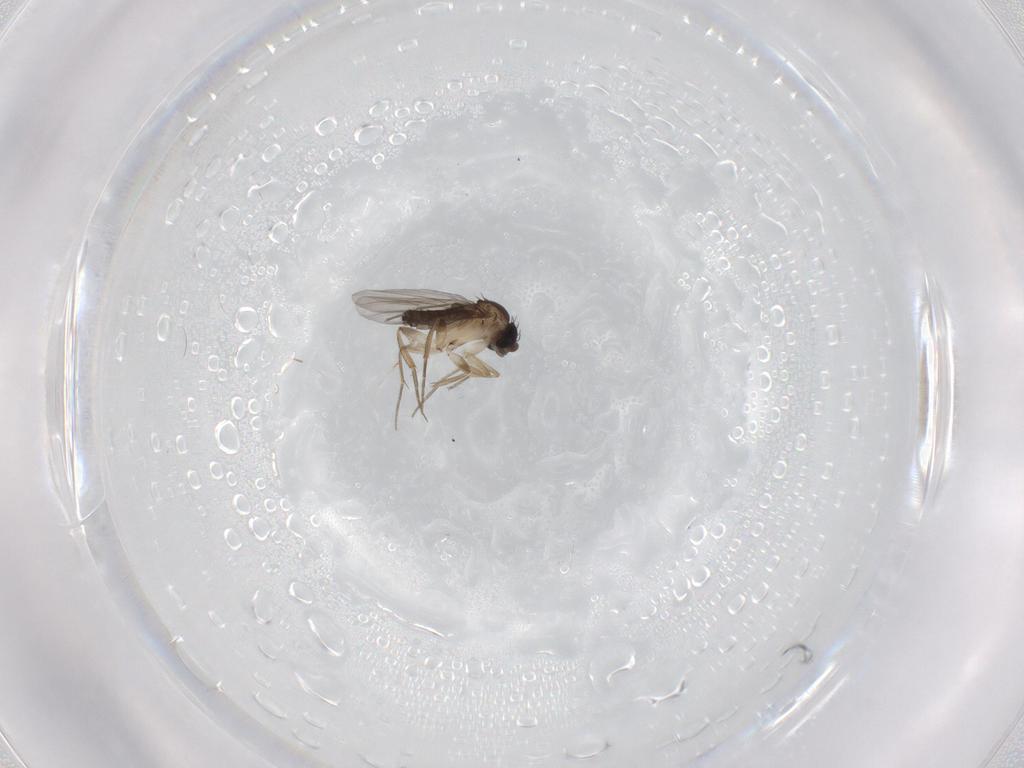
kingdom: Animalia
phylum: Arthropoda
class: Insecta
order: Diptera
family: Phoridae
